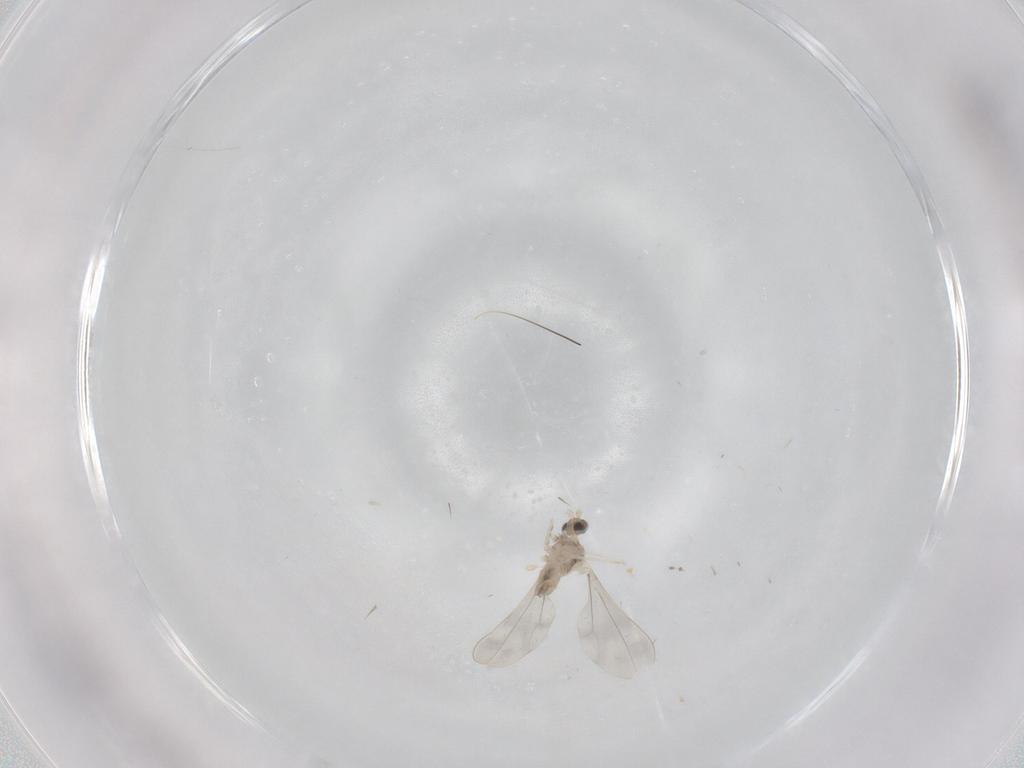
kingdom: Animalia
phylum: Arthropoda
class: Insecta
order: Diptera
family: Cecidomyiidae
